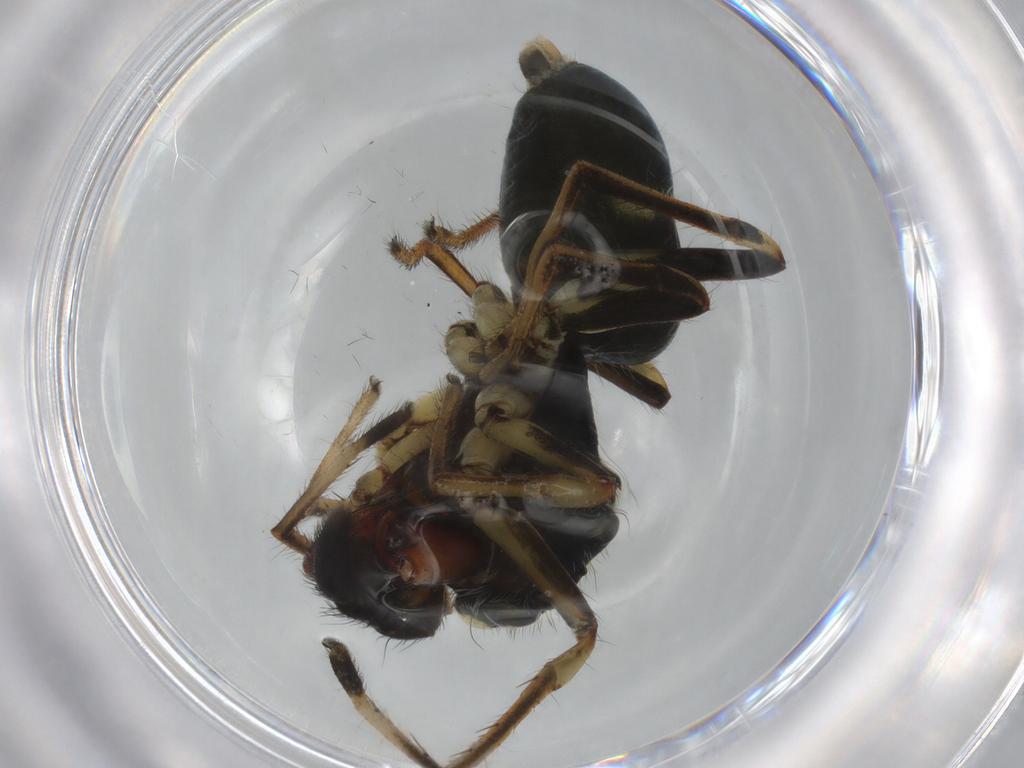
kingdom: Animalia
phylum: Arthropoda
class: Arachnida
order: Araneae
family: Salticidae
